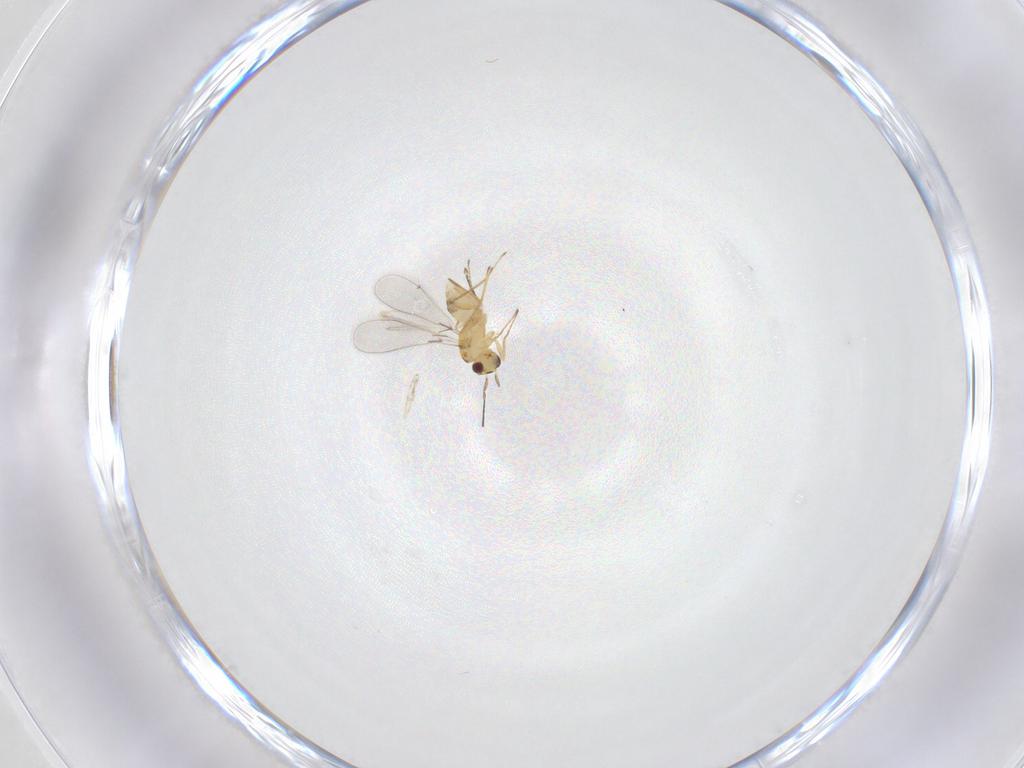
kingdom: Animalia
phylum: Arthropoda
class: Insecta
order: Hymenoptera
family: Mymaridae
